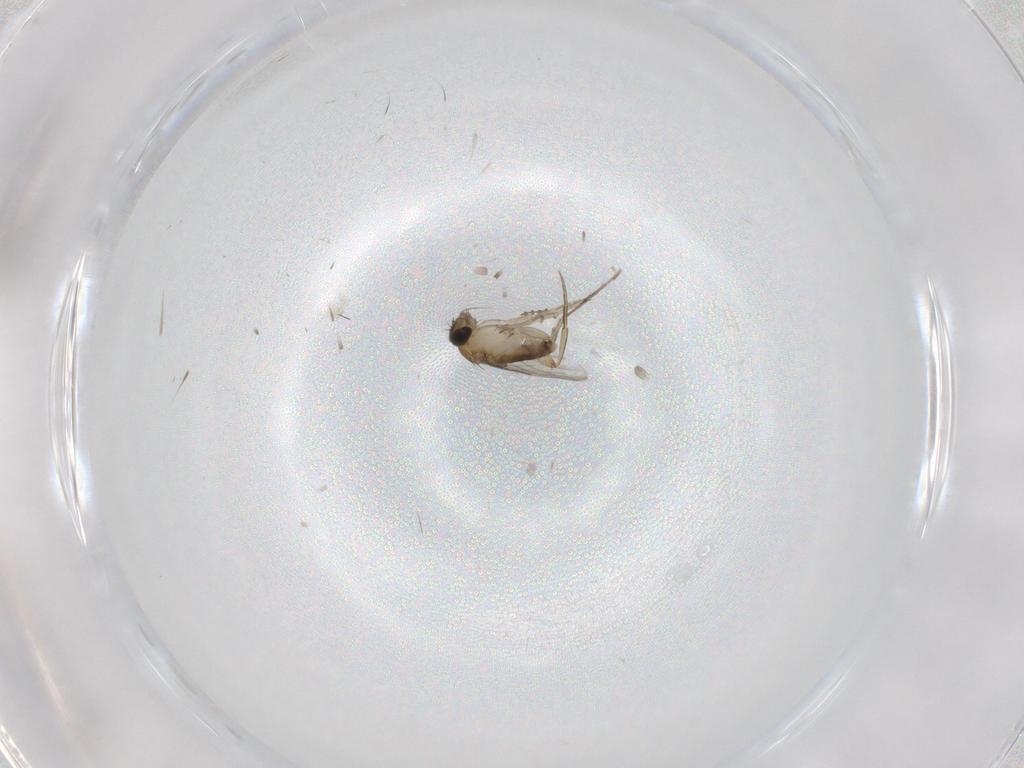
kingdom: Animalia
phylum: Arthropoda
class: Insecta
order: Diptera
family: Phoridae
